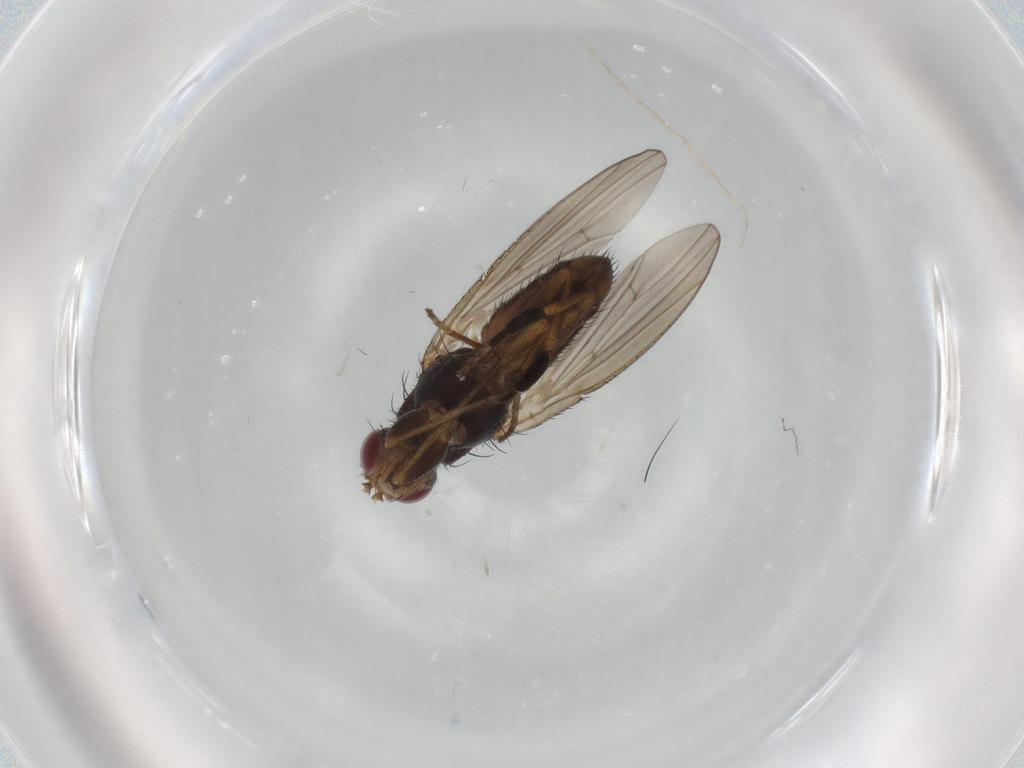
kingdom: Animalia
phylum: Arthropoda
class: Insecta
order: Diptera
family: Heleomyzidae
